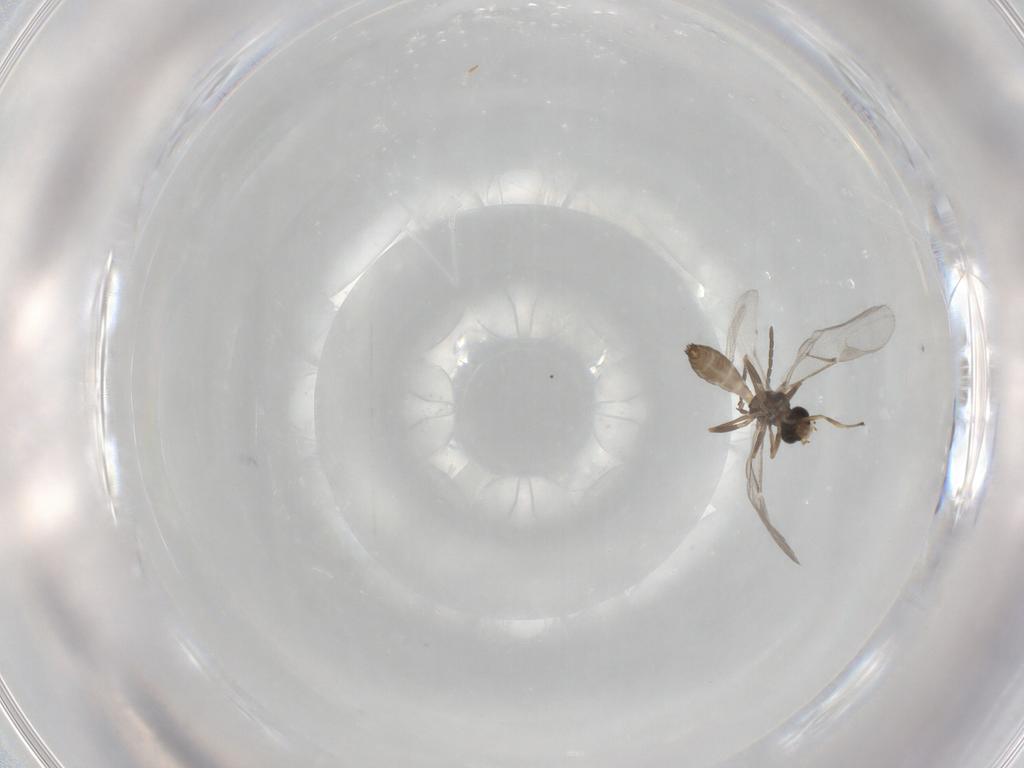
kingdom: Animalia
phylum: Arthropoda
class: Insecta
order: Hymenoptera
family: Braconidae
